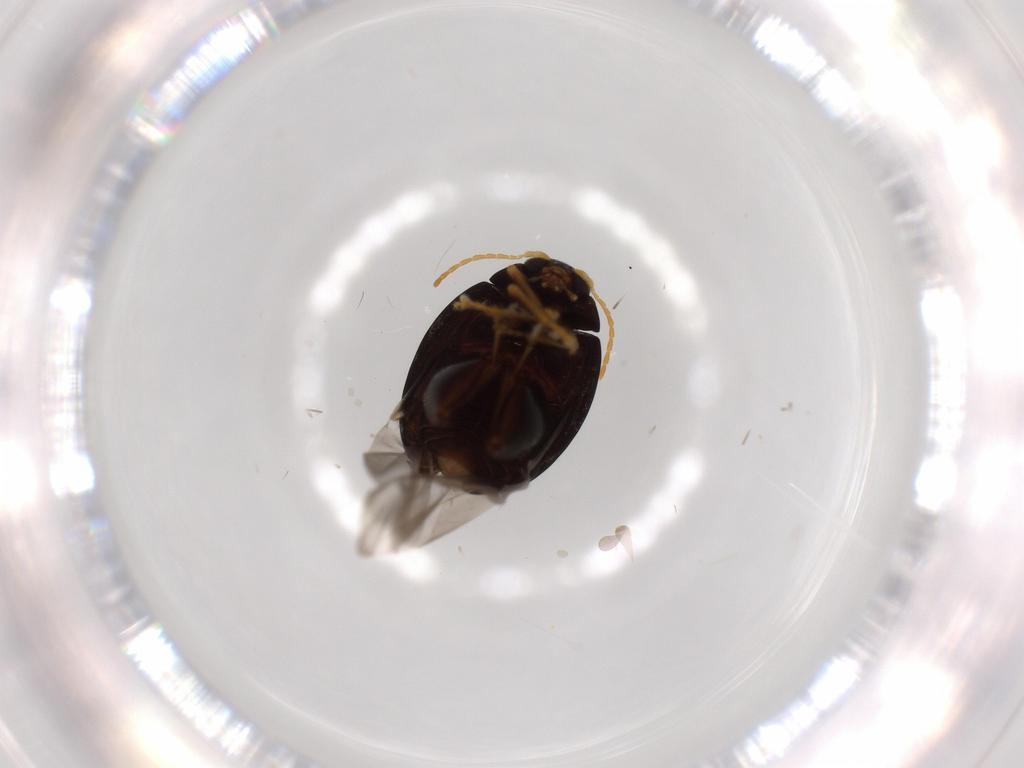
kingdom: Animalia
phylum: Arthropoda
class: Insecta
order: Coleoptera
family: Chrysomelidae
